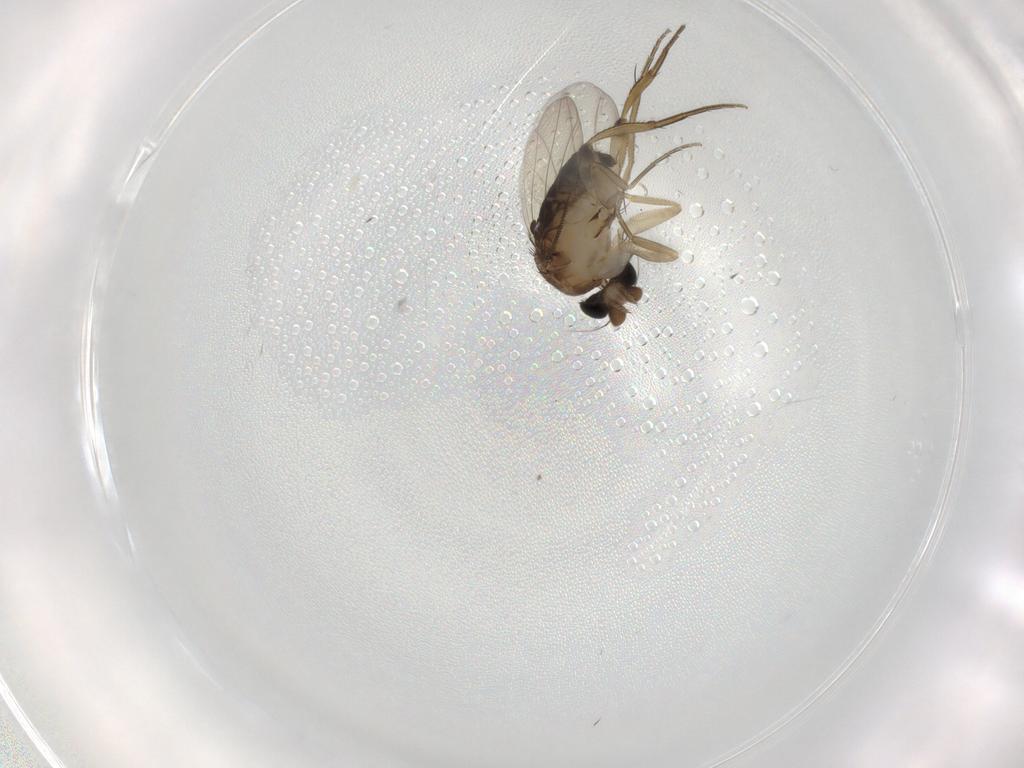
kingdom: Animalia
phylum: Arthropoda
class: Insecta
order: Diptera
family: Phoridae
